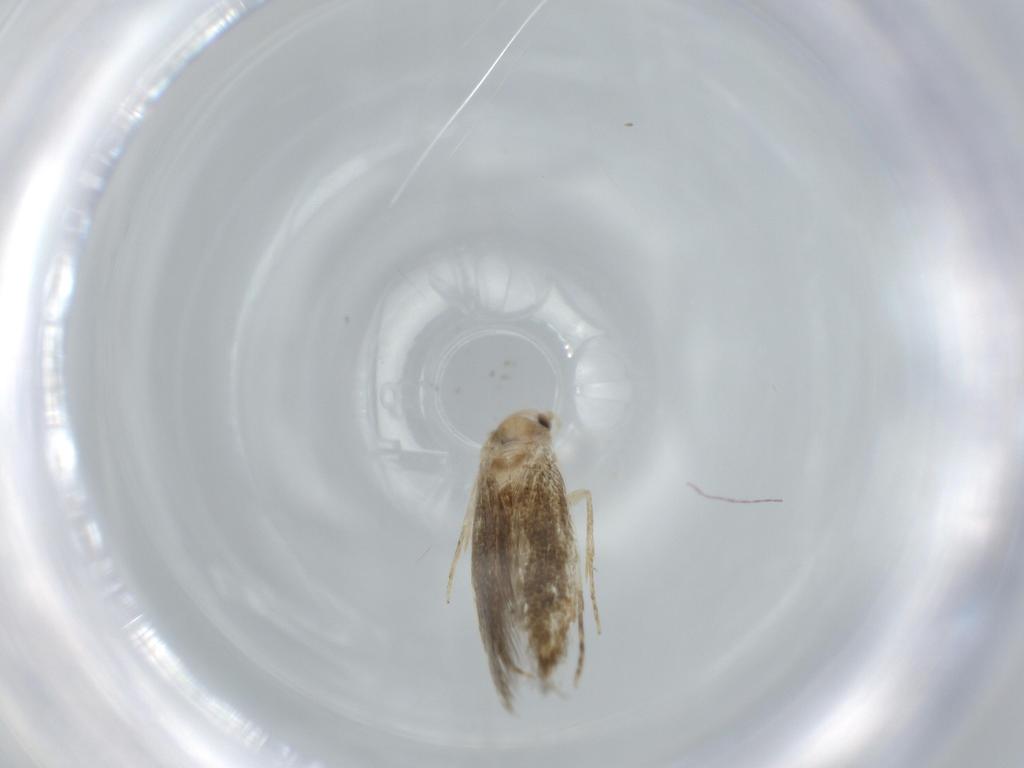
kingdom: Animalia
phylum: Arthropoda
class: Insecta
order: Lepidoptera
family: Tineidae
